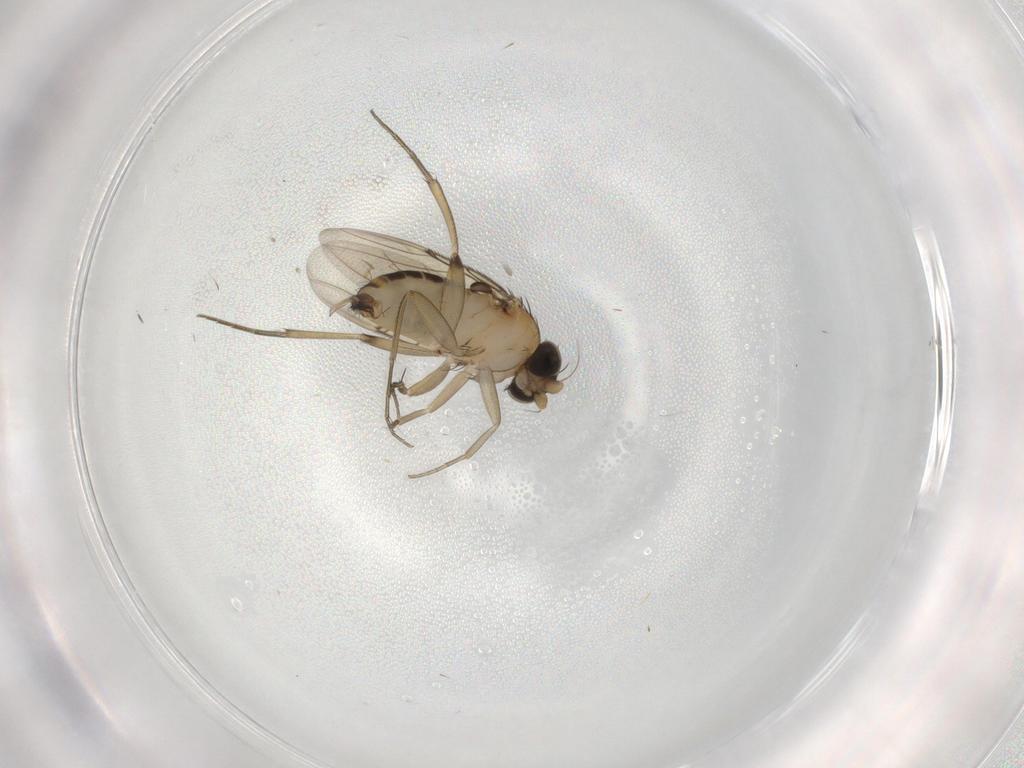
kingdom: Animalia
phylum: Arthropoda
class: Insecta
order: Diptera
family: Phoridae
